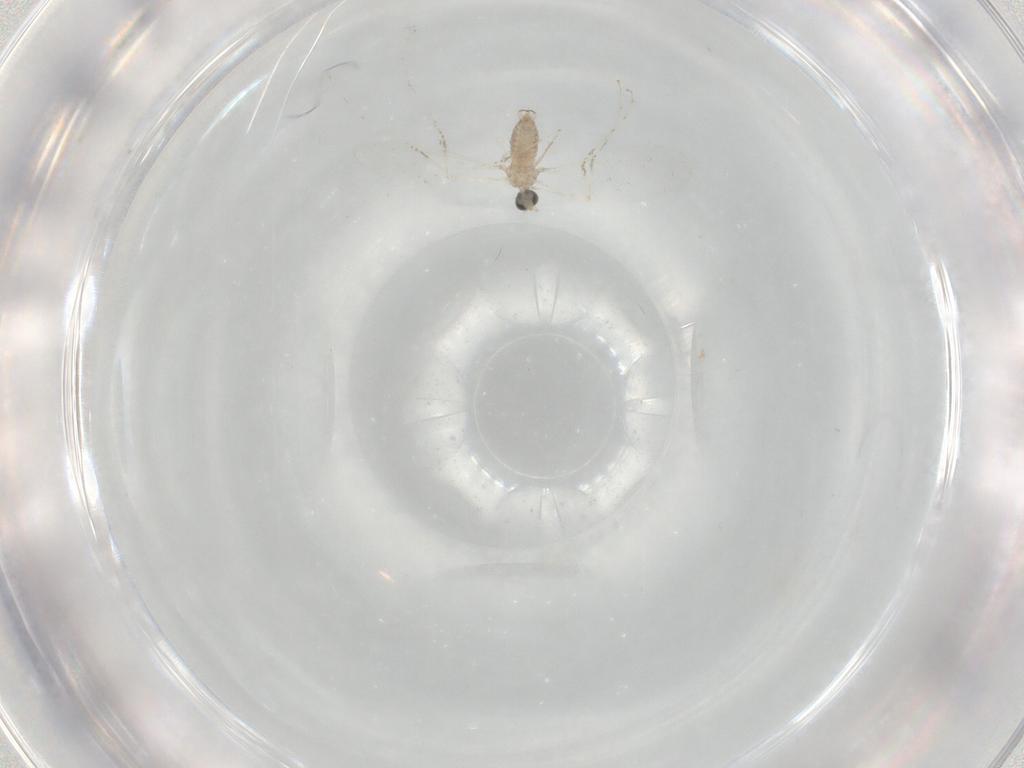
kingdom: Animalia
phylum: Arthropoda
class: Insecta
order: Diptera
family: Cecidomyiidae
